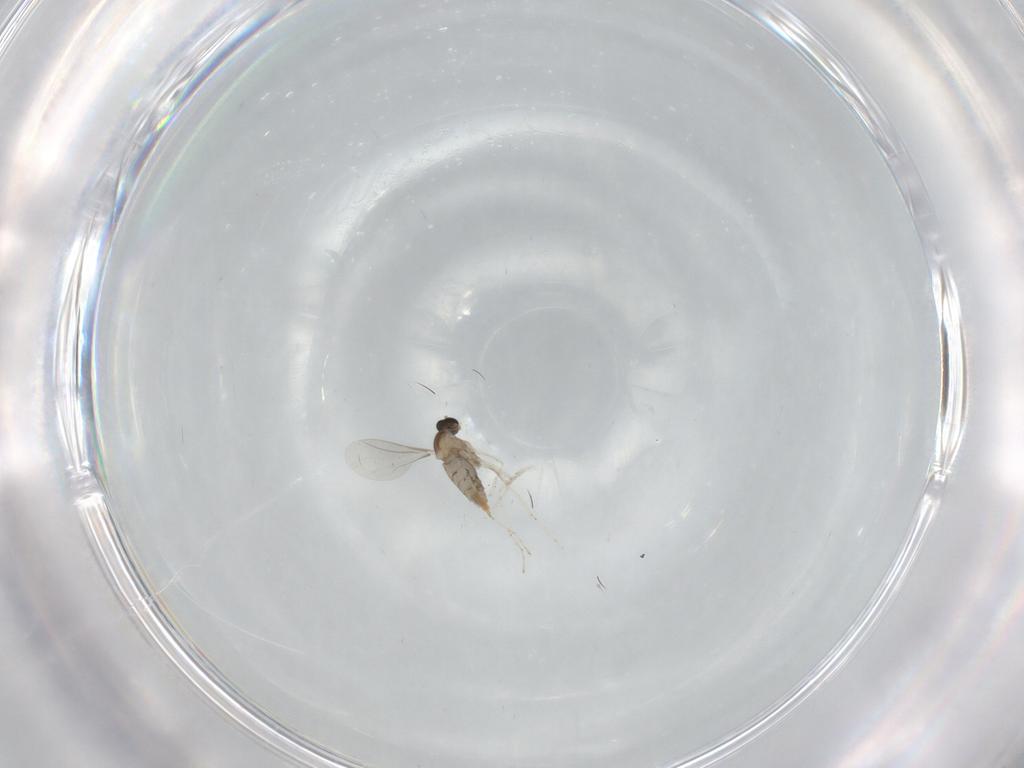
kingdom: Animalia
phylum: Arthropoda
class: Insecta
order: Diptera
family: Cecidomyiidae
